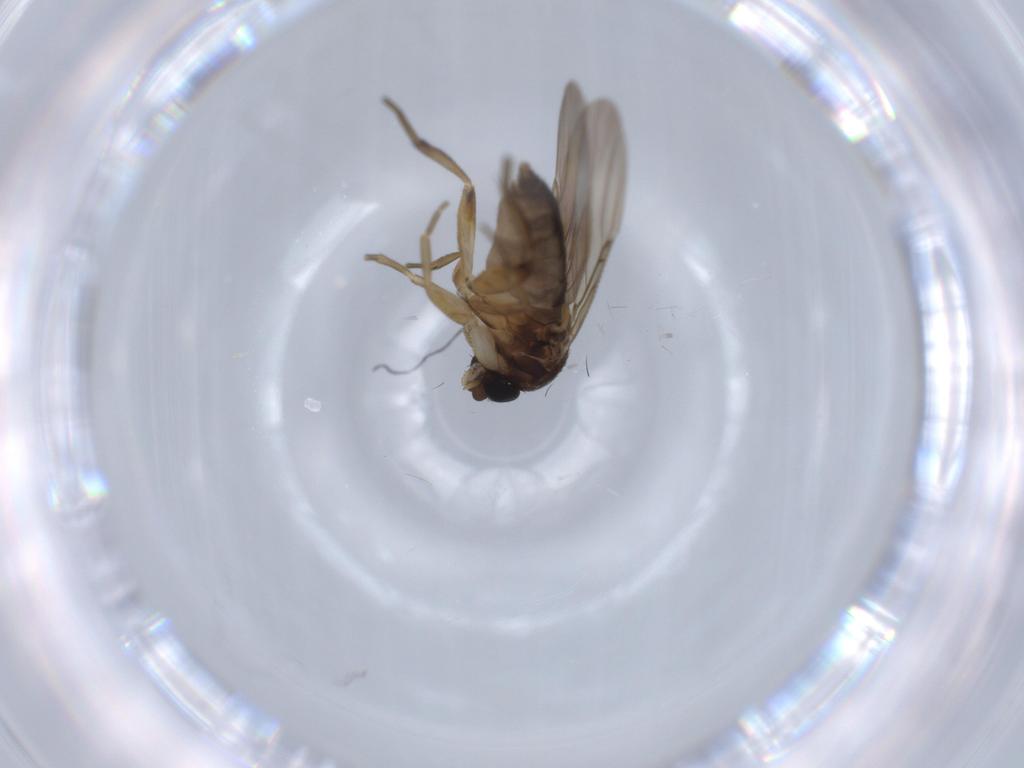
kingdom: Animalia
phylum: Arthropoda
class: Insecta
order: Diptera
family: Phoridae
